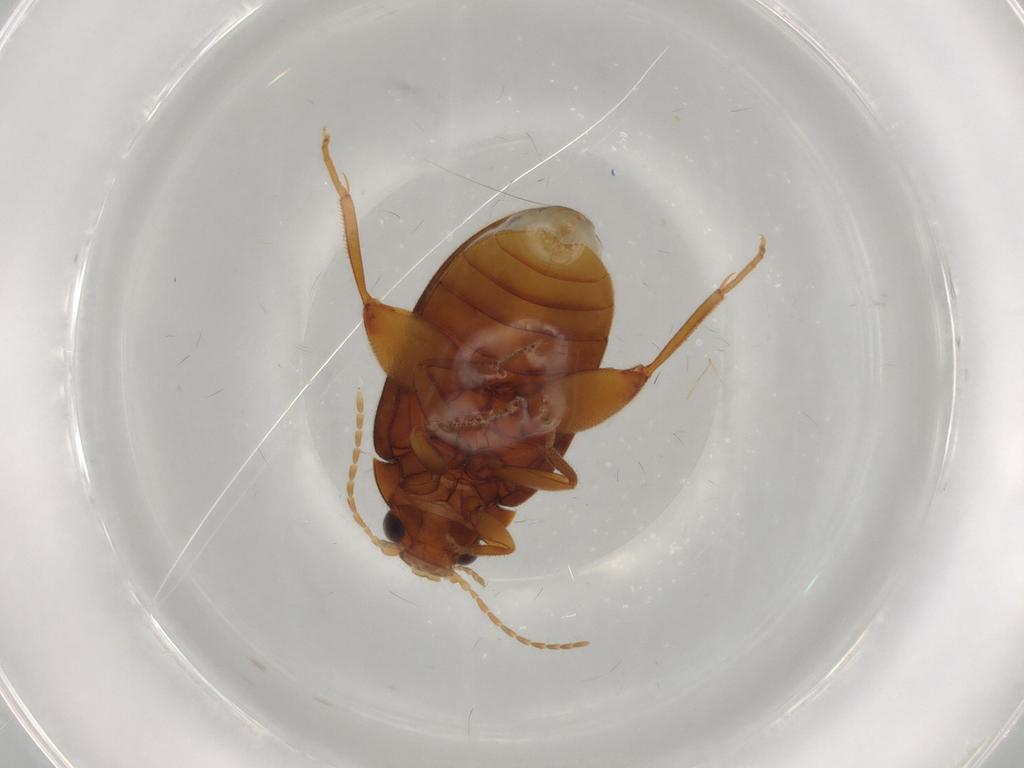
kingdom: Animalia
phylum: Arthropoda
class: Insecta
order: Coleoptera
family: Scirtidae
